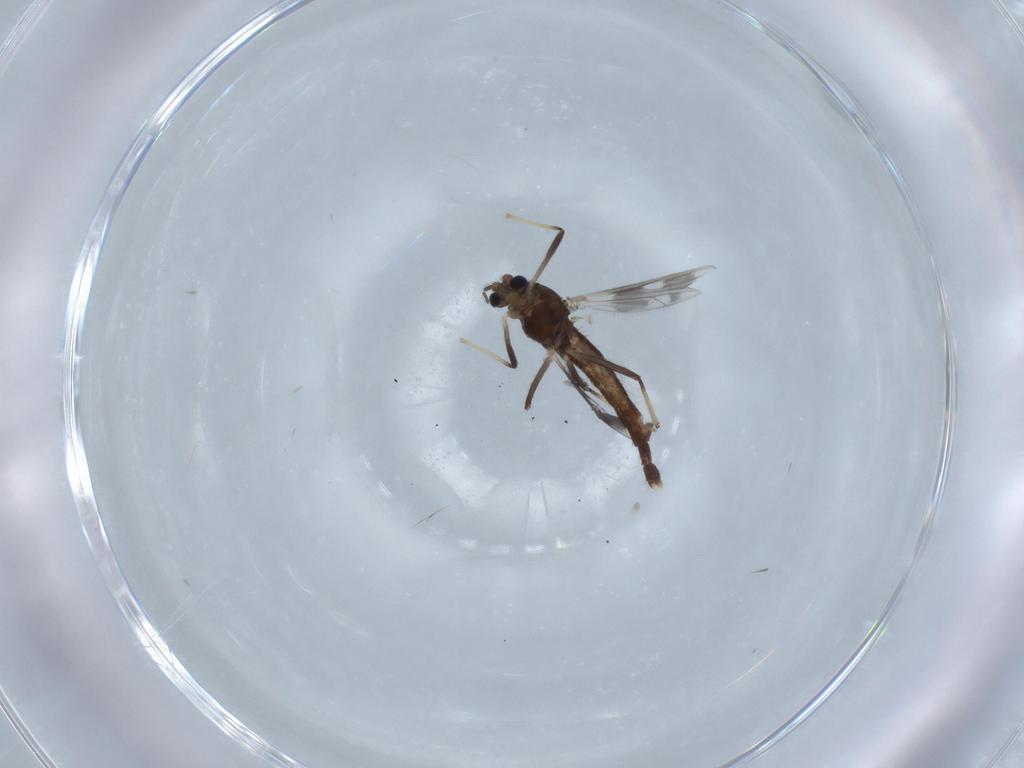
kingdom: Animalia
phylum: Arthropoda
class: Insecta
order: Diptera
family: Chironomidae
